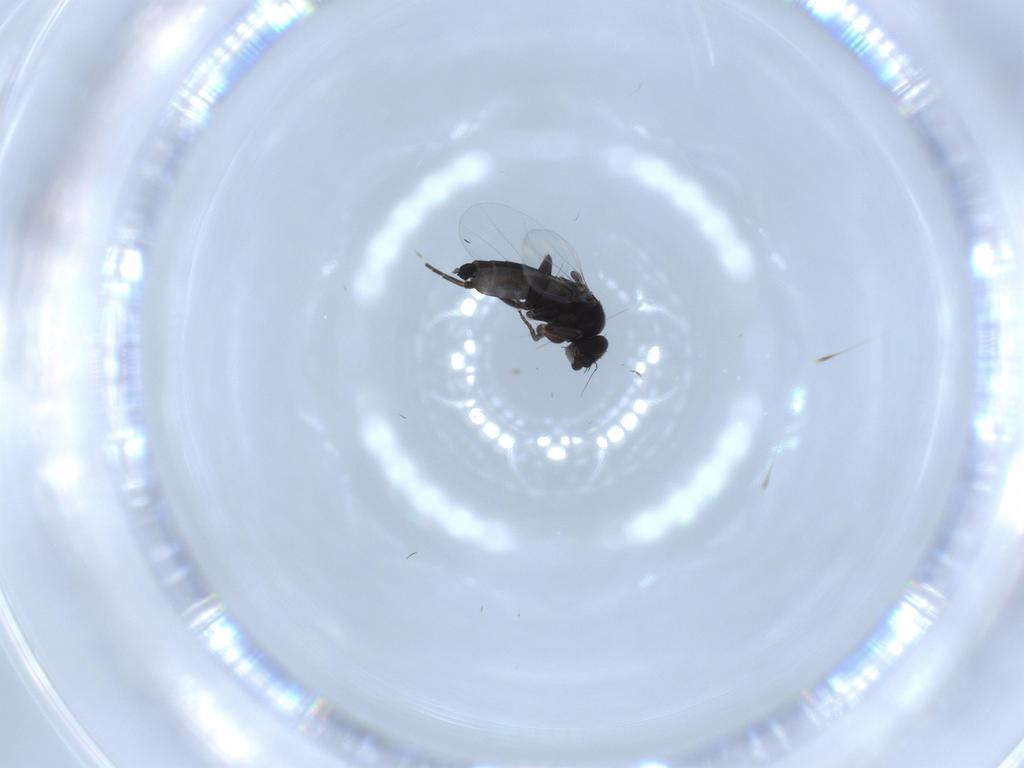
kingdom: Animalia
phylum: Arthropoda
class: Insecta
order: Diptera
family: Phoridae
